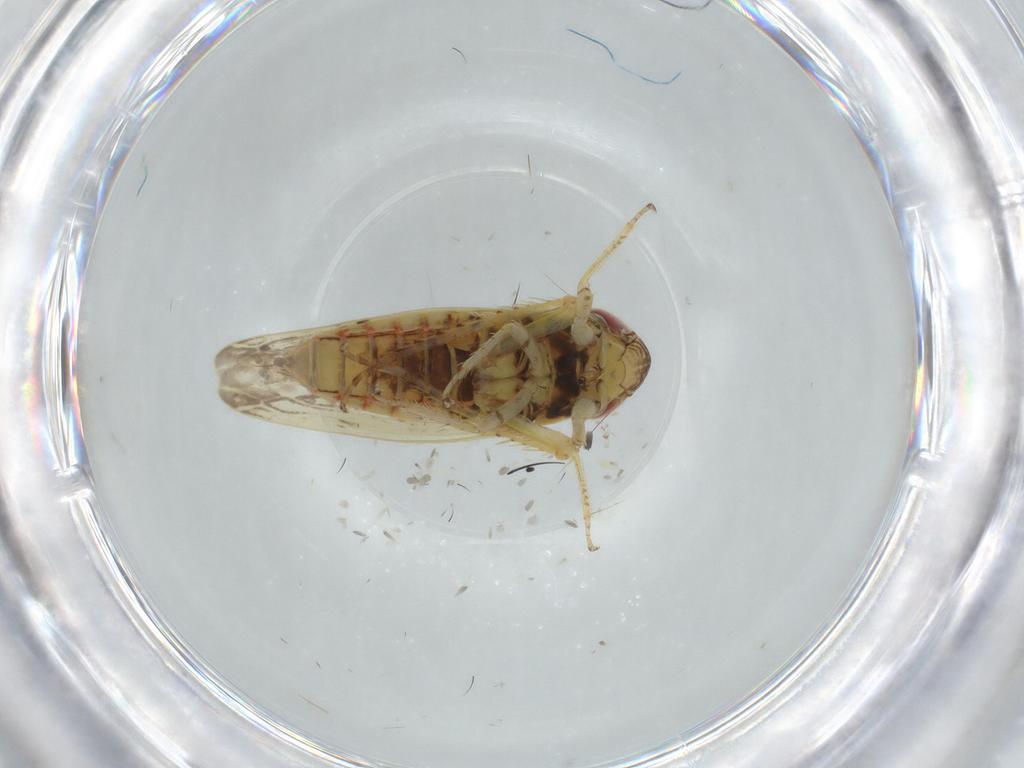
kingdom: Animalia
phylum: Arthropoda
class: Insecta
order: Hemiptera
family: Cicadellidae
